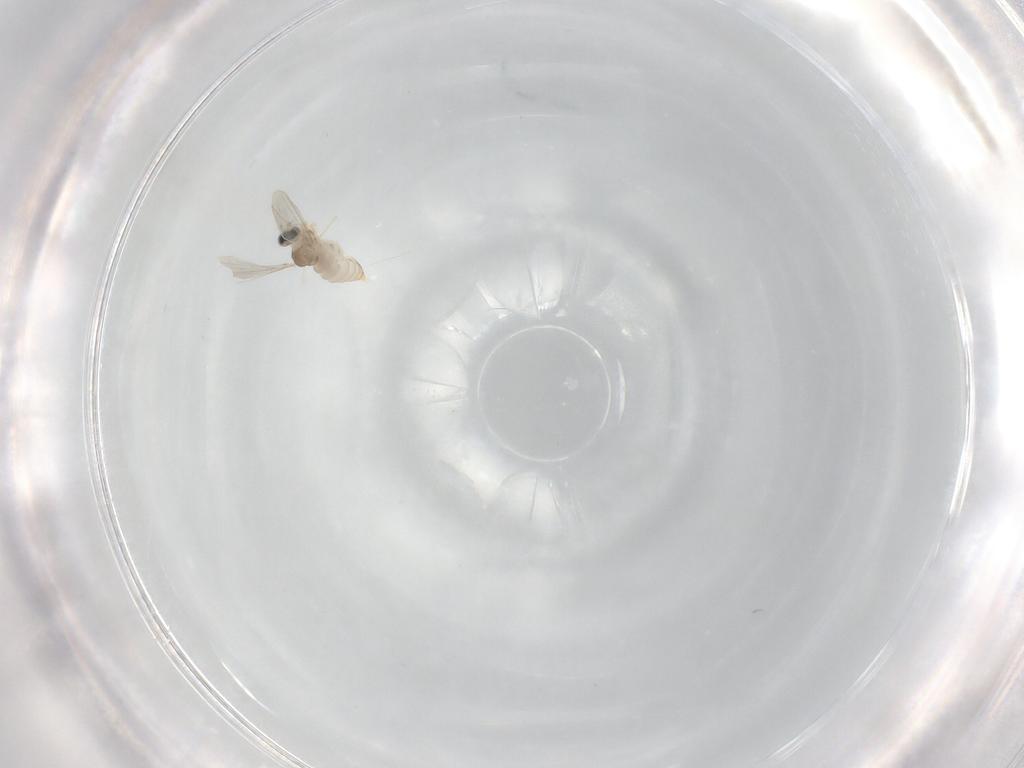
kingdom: Animalia
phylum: Arthropoda
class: Insecta
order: Diptera
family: Cecidomyiidae
